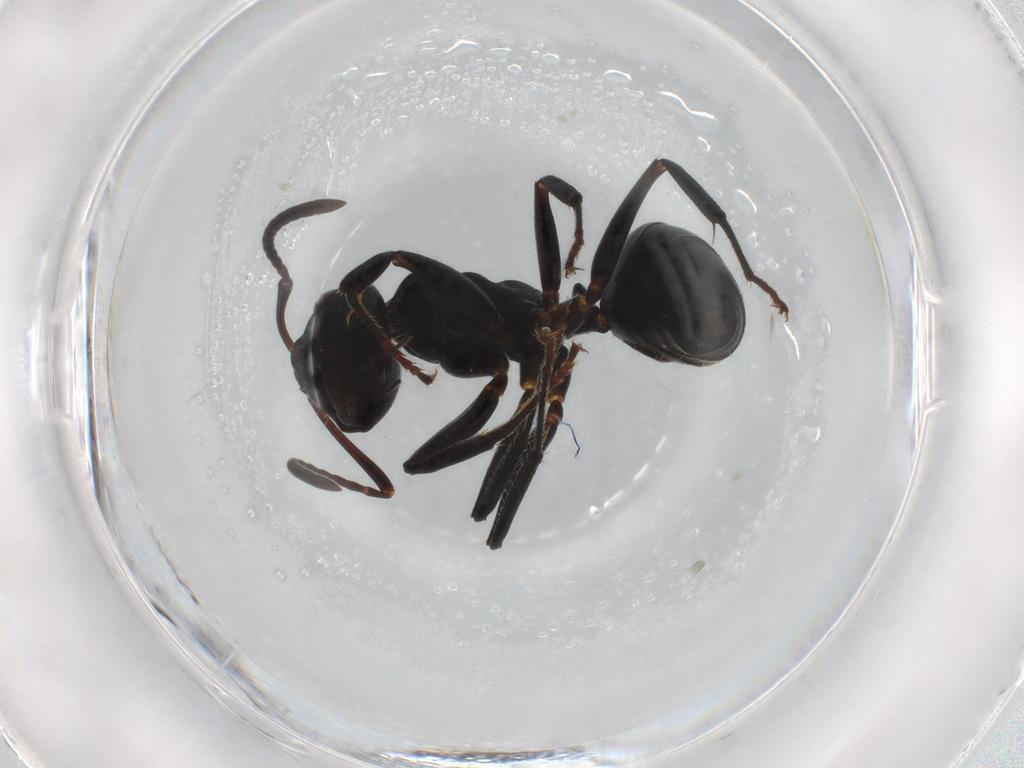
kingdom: Animalia
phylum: Arthropoda
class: Insecta
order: Hymenoptera
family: Formicidae
